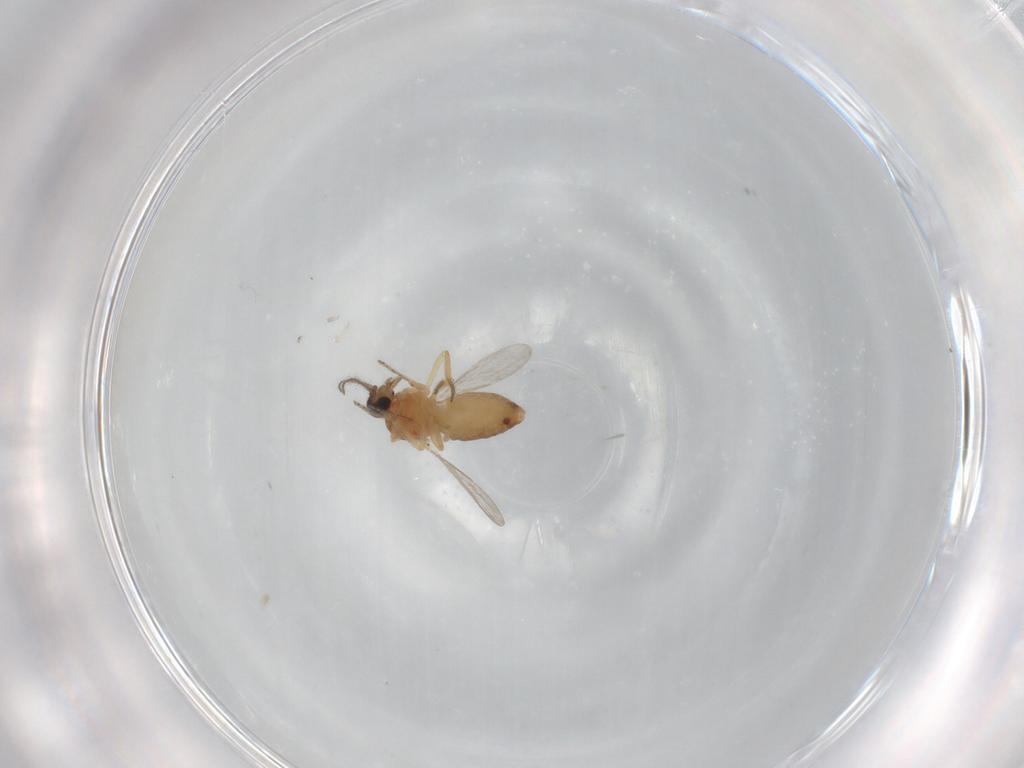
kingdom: Animalia
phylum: Arthropoda
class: Insecta
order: Diptera
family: Ceratopogonidae
